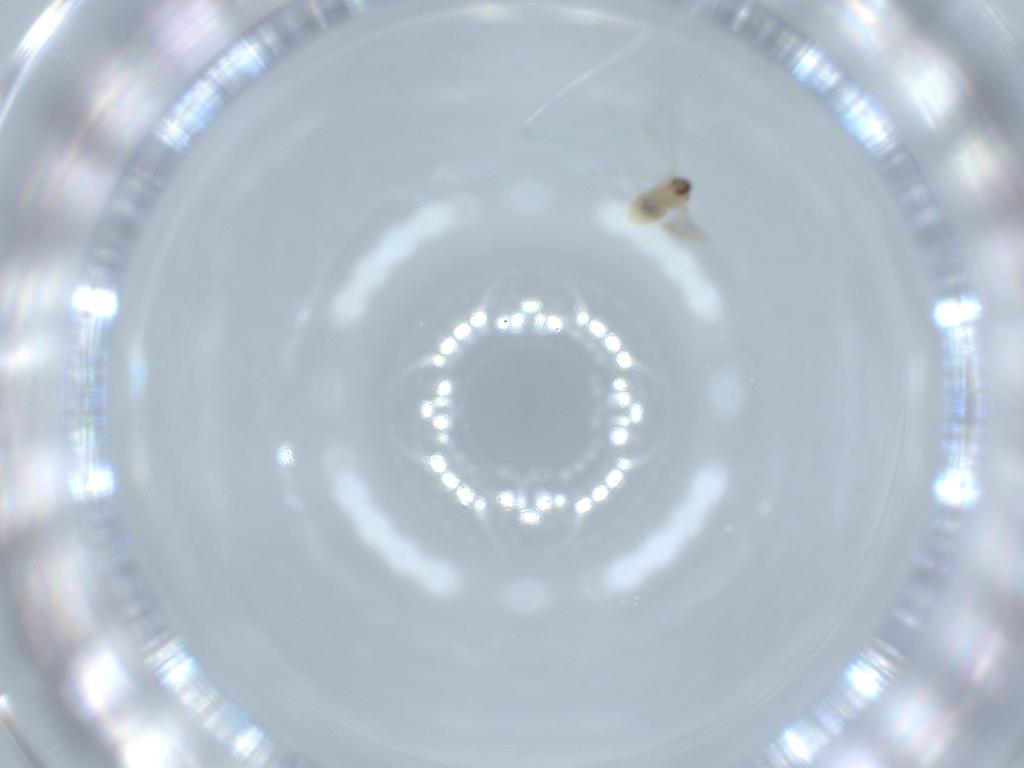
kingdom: Animalia
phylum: Arthropoda
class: Insecta
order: Diptera
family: Cecidomyiidae
